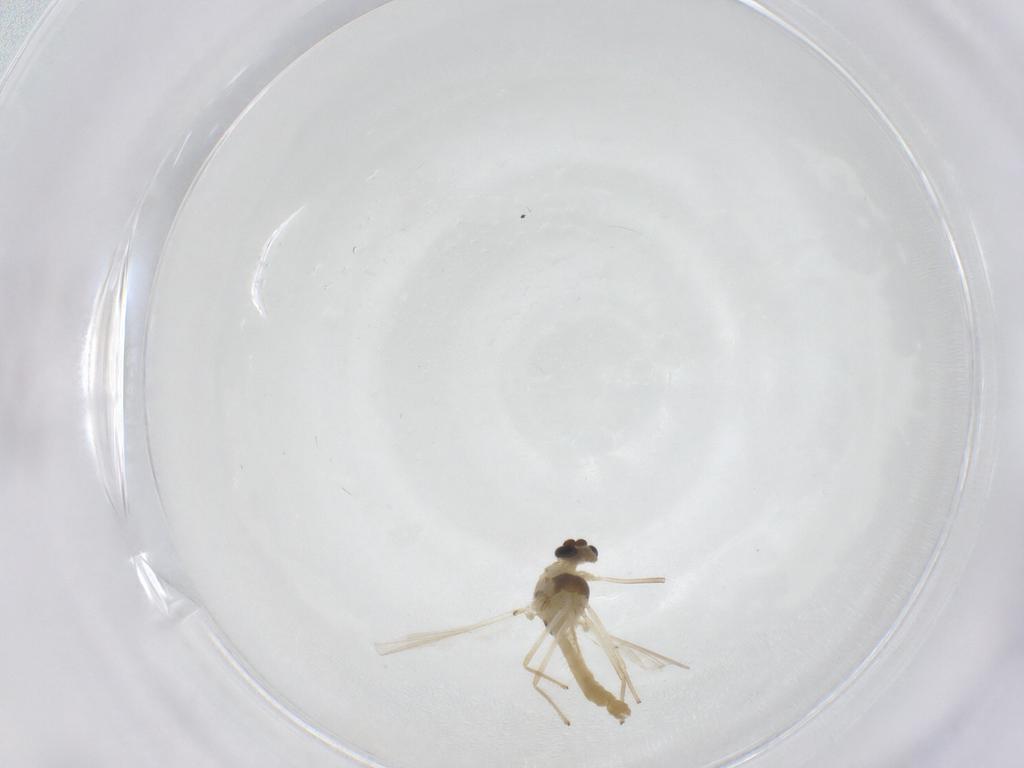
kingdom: Animalia
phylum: Arthropoda
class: Insecta
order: Diptera
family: Chironomidae
